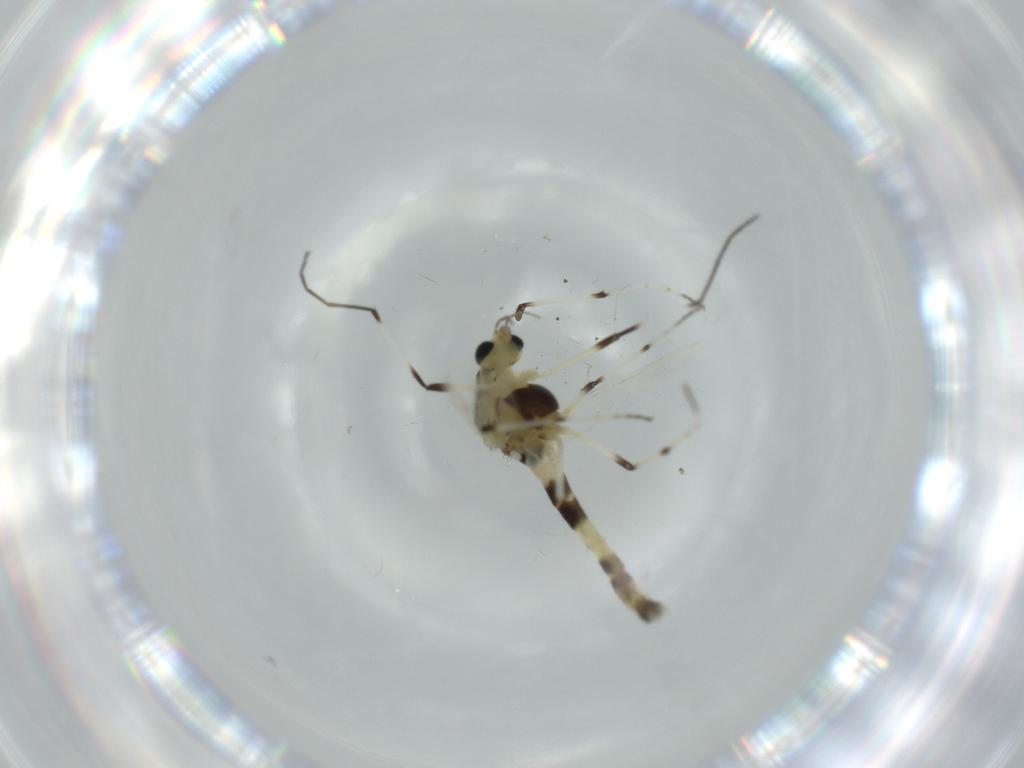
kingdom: Animalia
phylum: Arthropoda
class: Insecta
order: Diptera
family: Chironomidae
